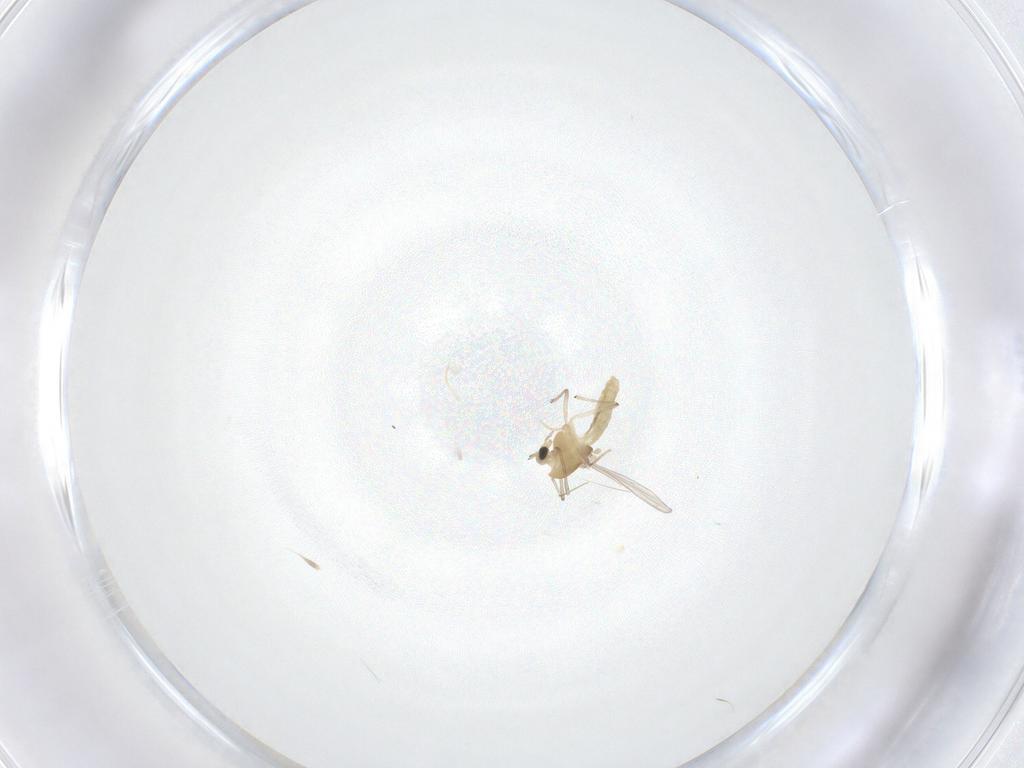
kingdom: Animalia
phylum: Arthropoda
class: Insecta
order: Diptera
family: Chironomidae
